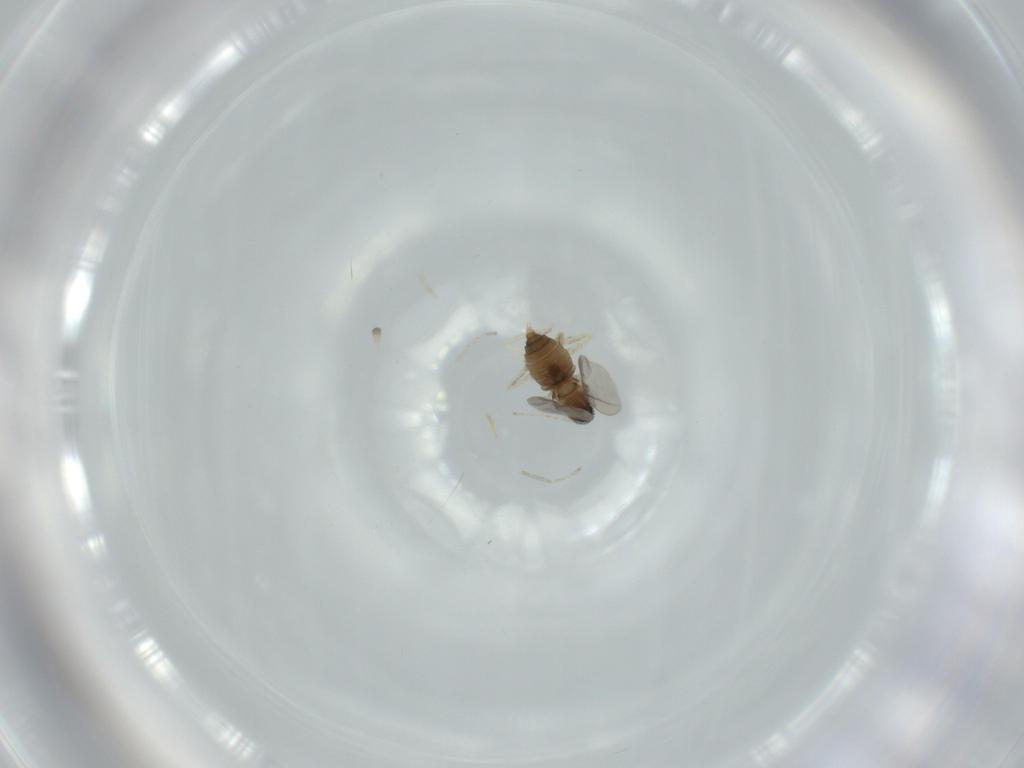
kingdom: Animalia
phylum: Arthropoda
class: Insecta
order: Diptera
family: Cecidomyiidae
